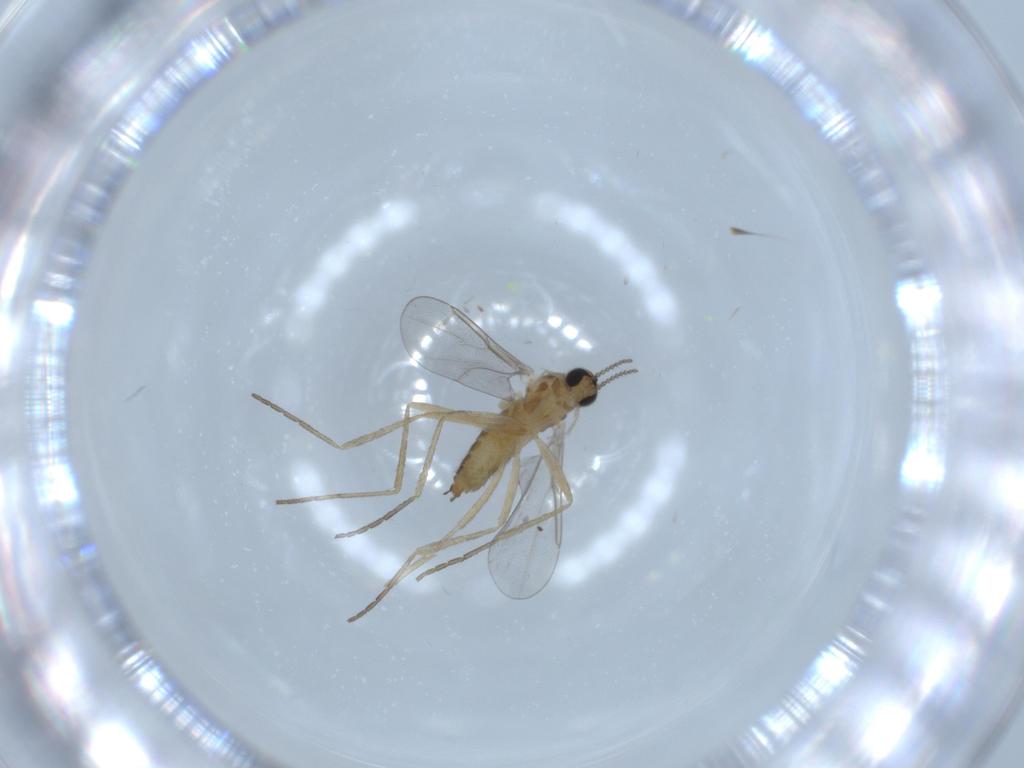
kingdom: Animalia
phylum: Arthropoda
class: Insecta
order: Diptera
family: Cecidomyiidae
